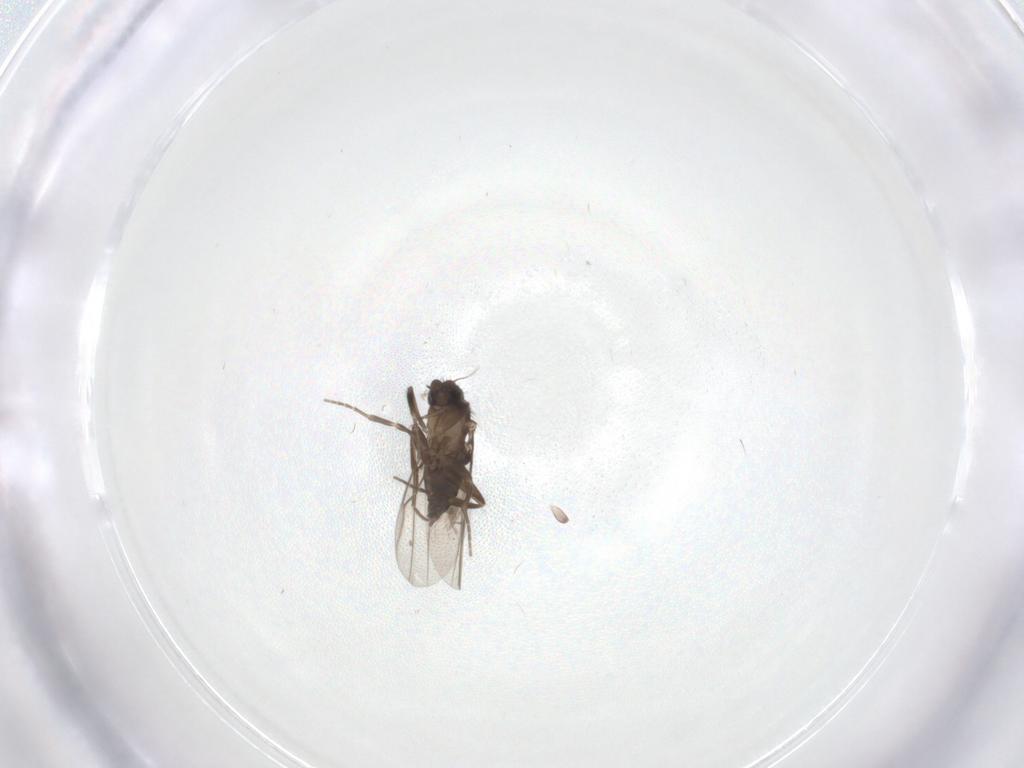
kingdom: Animalia
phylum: Arthropoda
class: Insecta
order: Diptera
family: Phoridae
